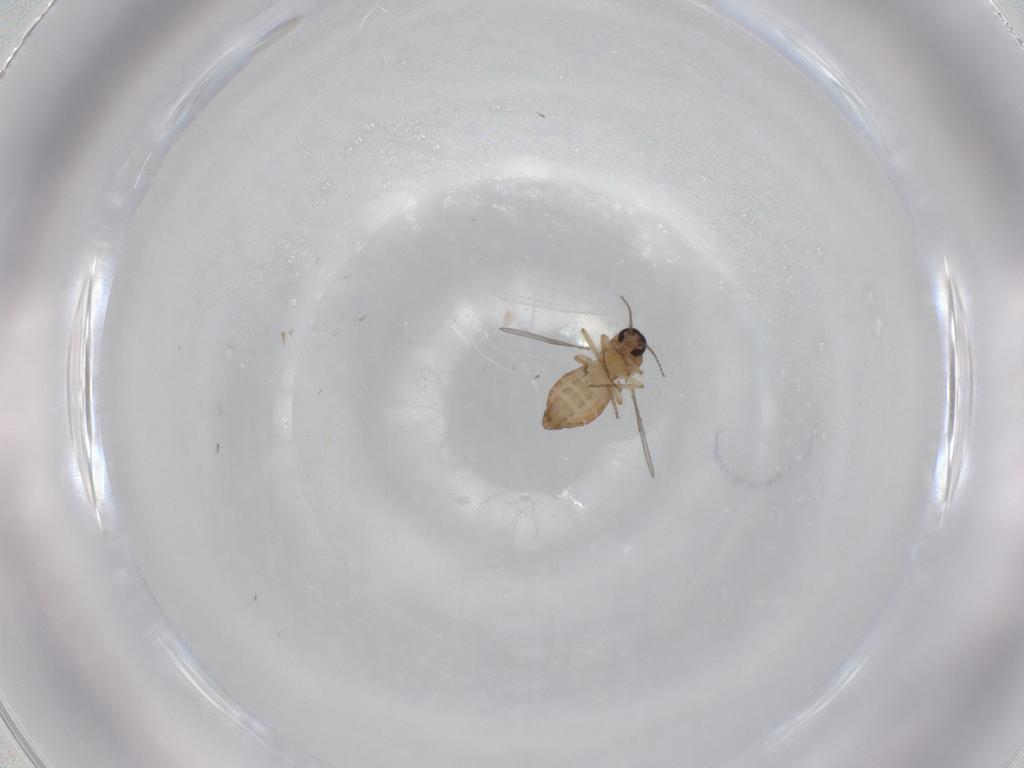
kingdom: Animalia
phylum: Arthropoda
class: Insecta
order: Diptera
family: Ceratopogonidae
